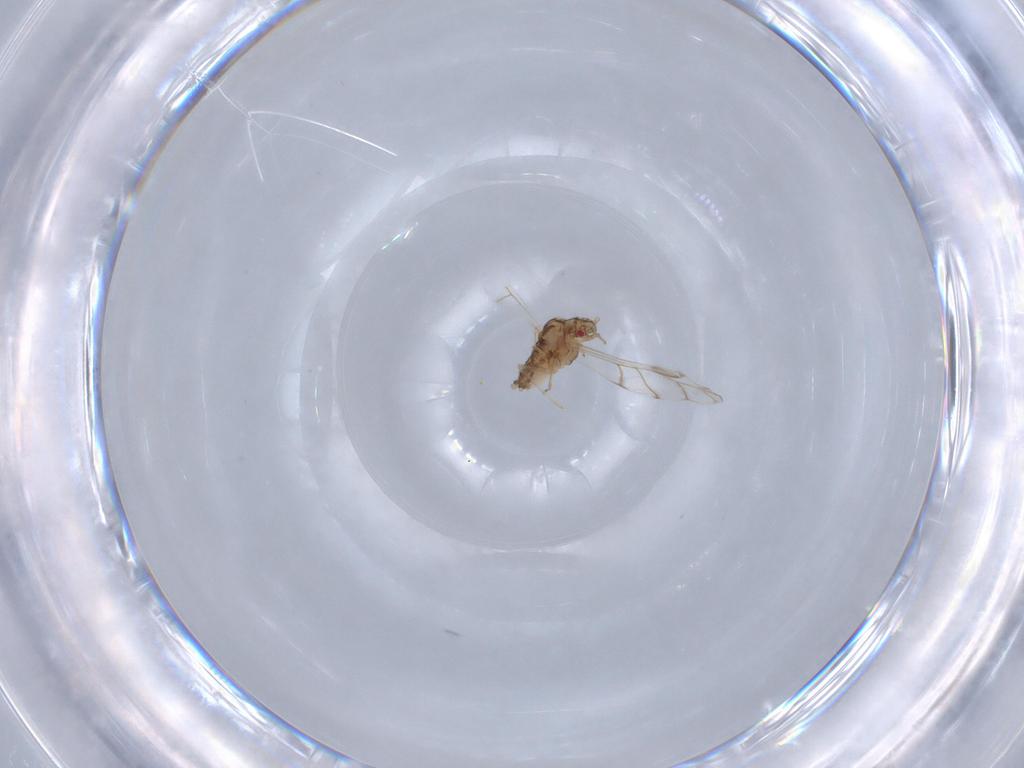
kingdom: Animalia
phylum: Arthropoda
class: Insecta
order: Hemiptera
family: Aphididae
